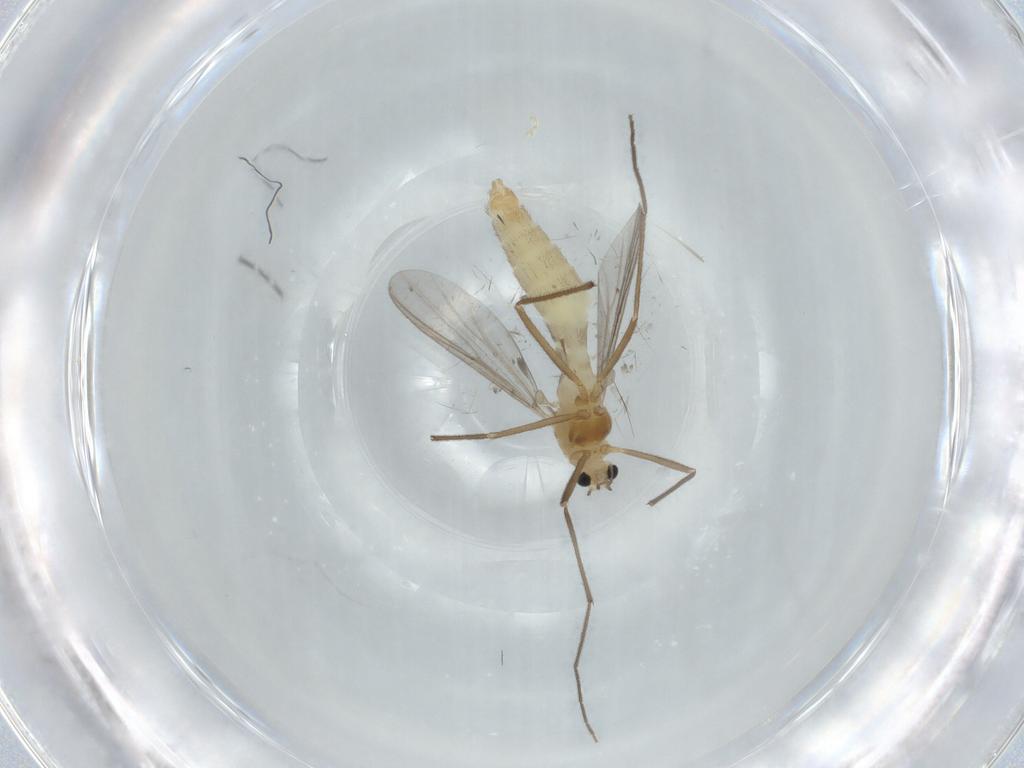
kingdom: Animalia
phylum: Arthropoda
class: Insecta
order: Diptera
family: Chironomidae
